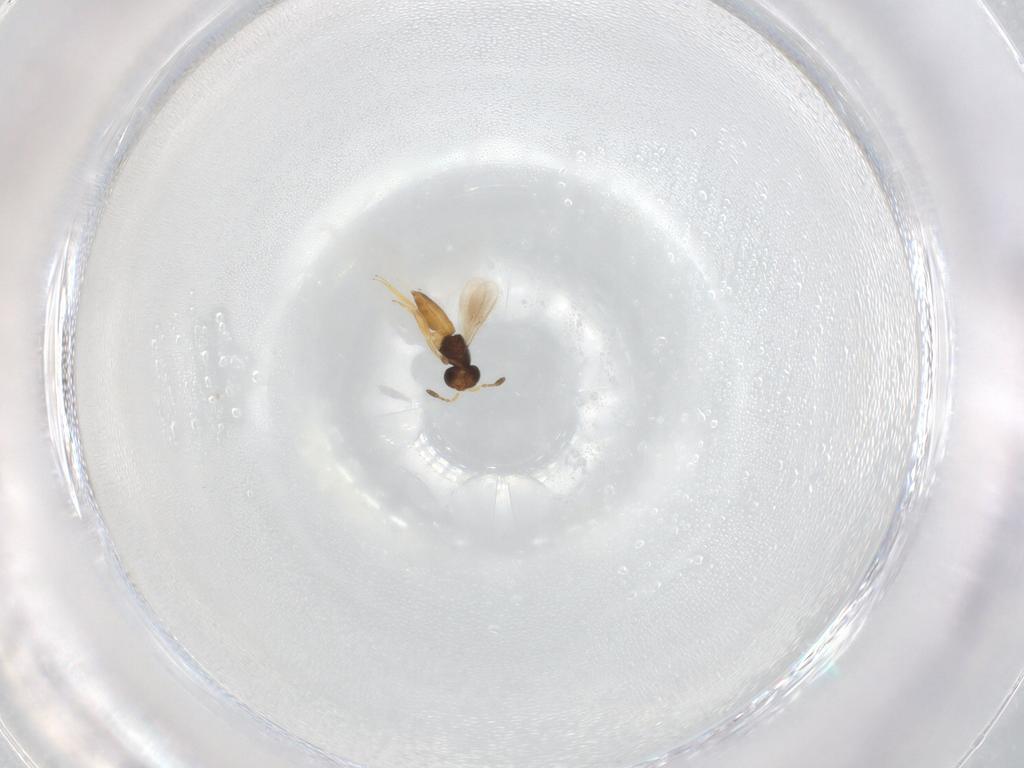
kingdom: Animalia
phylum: Arthropoda
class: Insecta
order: Hymenoptera
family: Scelionidae
